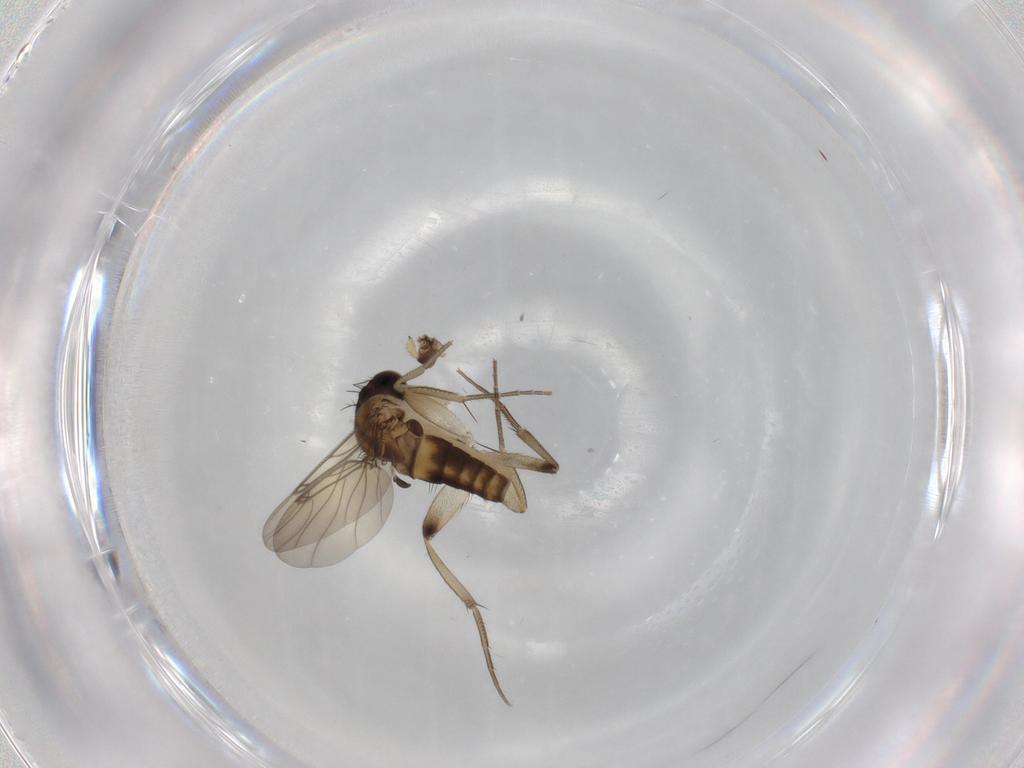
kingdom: Animalia
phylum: Arthropoda
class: Insecta
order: Diptera
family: Phoridae
